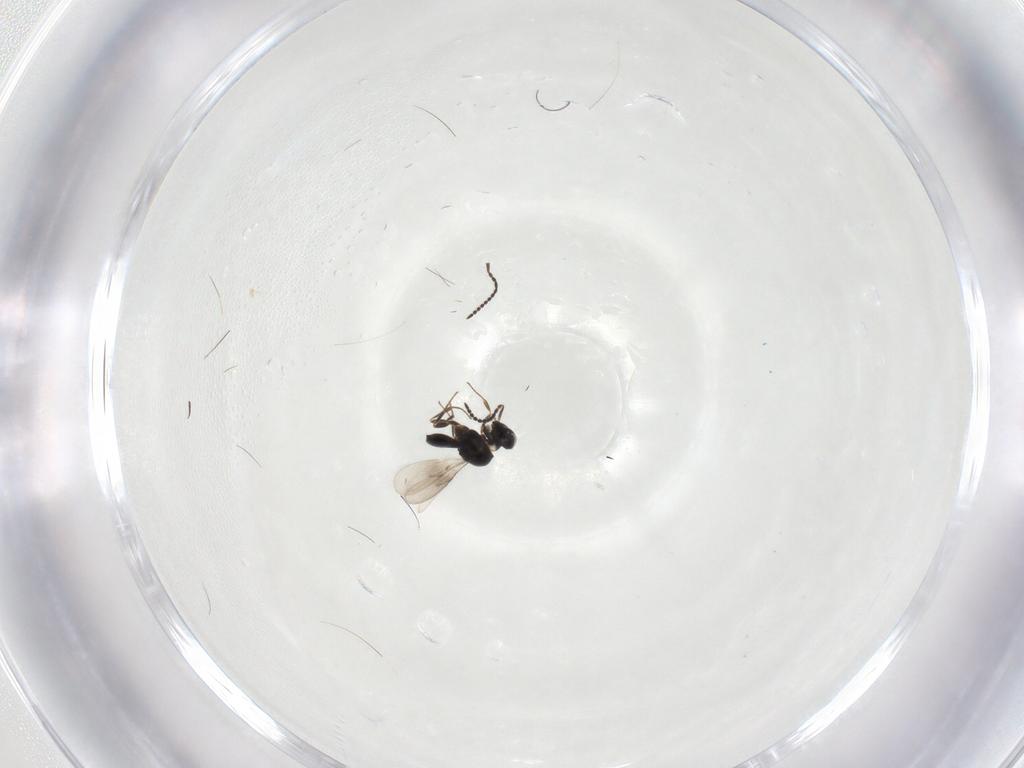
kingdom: Animalia
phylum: Arthropoda
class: Insecta
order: Hymenoptera
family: Scelionidae
